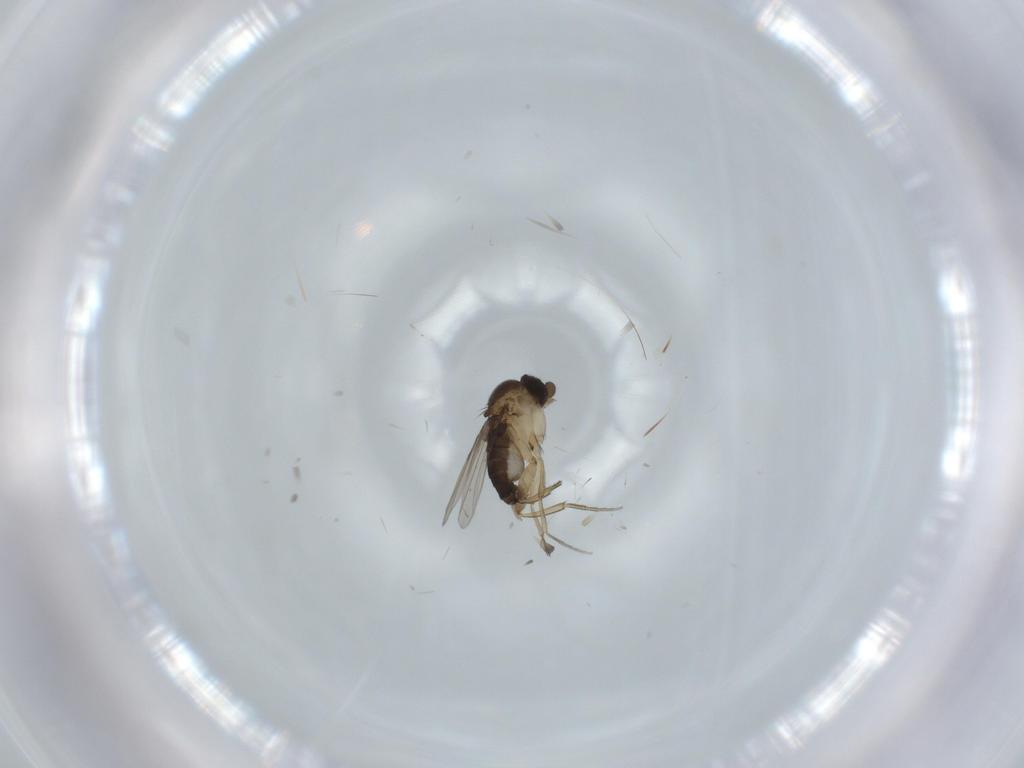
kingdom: Animalia
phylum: Arthropoda
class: Insecta
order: Diptera
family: Phoridae
